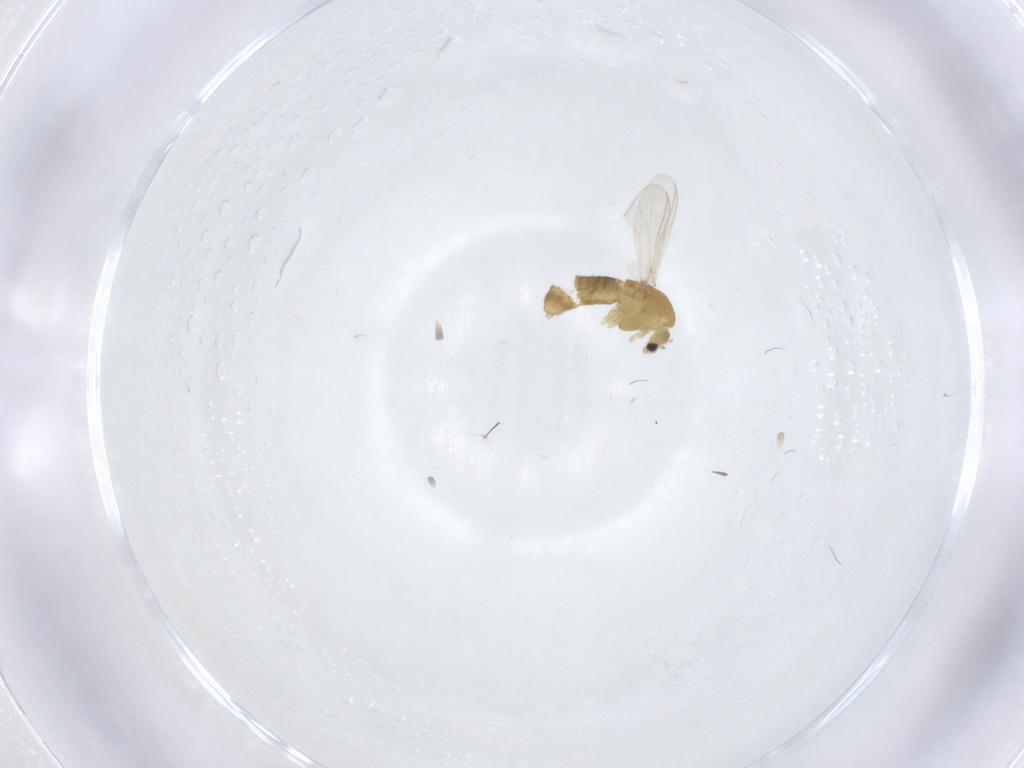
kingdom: Animalia
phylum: Arthropoda
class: Insecta
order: Diptera
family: Chironomidae
